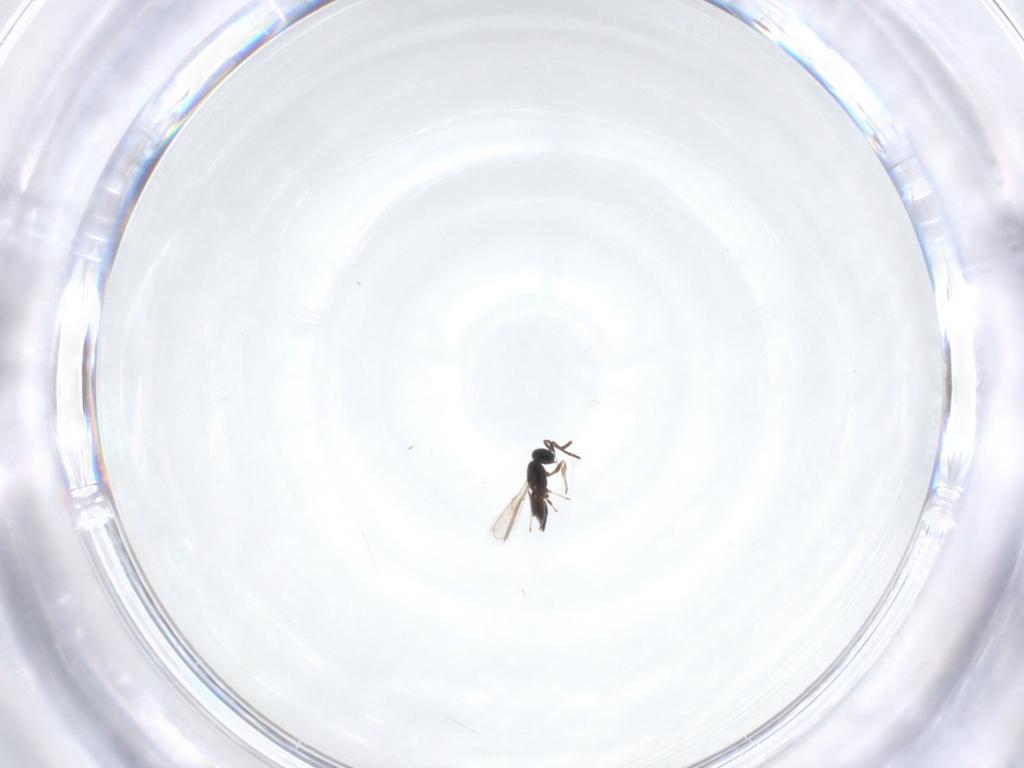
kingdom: Animalia
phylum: Arthropoda
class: Insecta
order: Hymenoptera
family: Scelionidae
